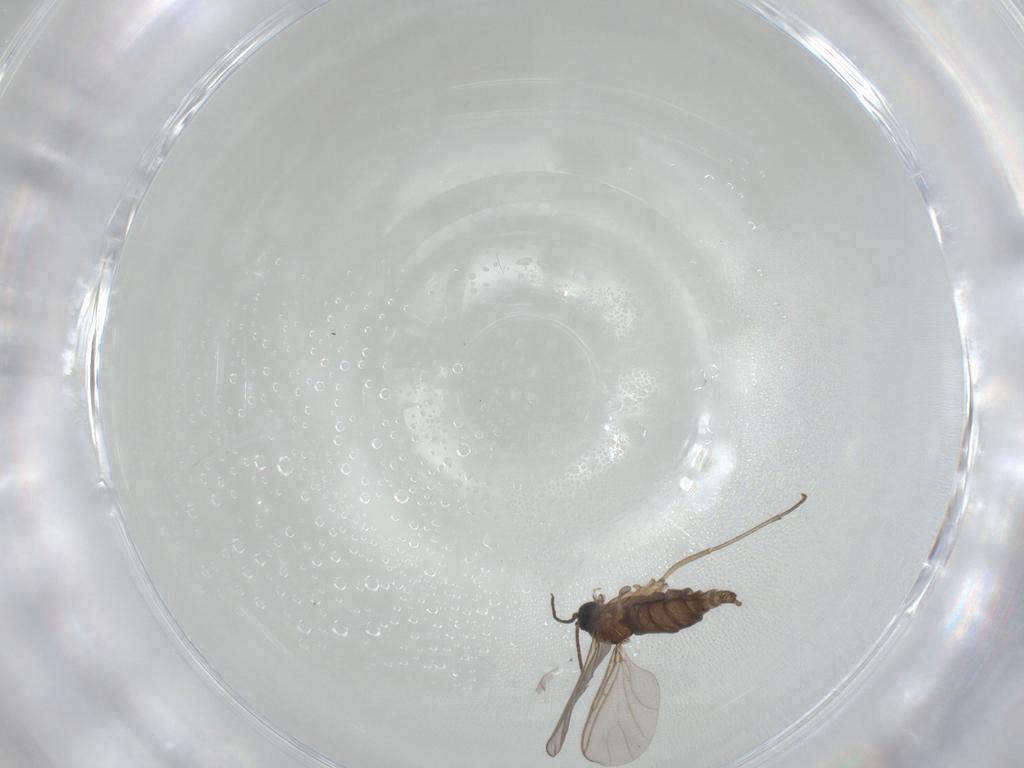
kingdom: Animalia
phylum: Arthropoda
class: Insecta
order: Diptera
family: Sciaridae
